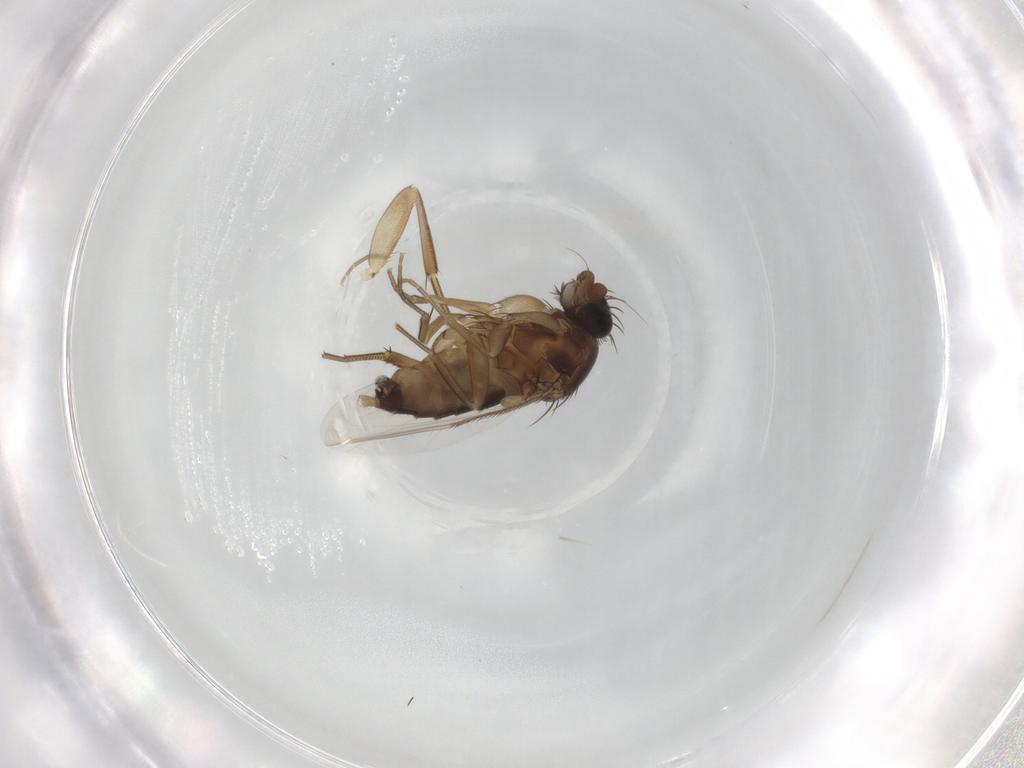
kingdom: Animalia
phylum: Arthropoda
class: Insecta
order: Diptera
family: Phoridae
